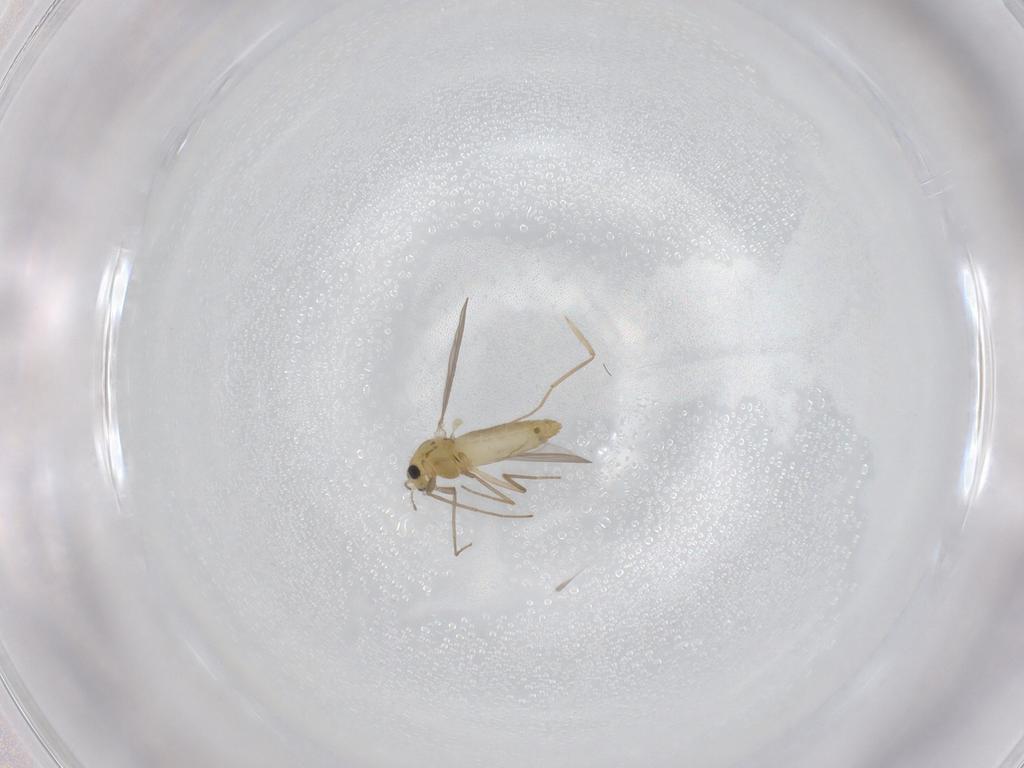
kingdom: Animalia
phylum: Arthropoda
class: Insecta
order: Diptera
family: Chironomidae
